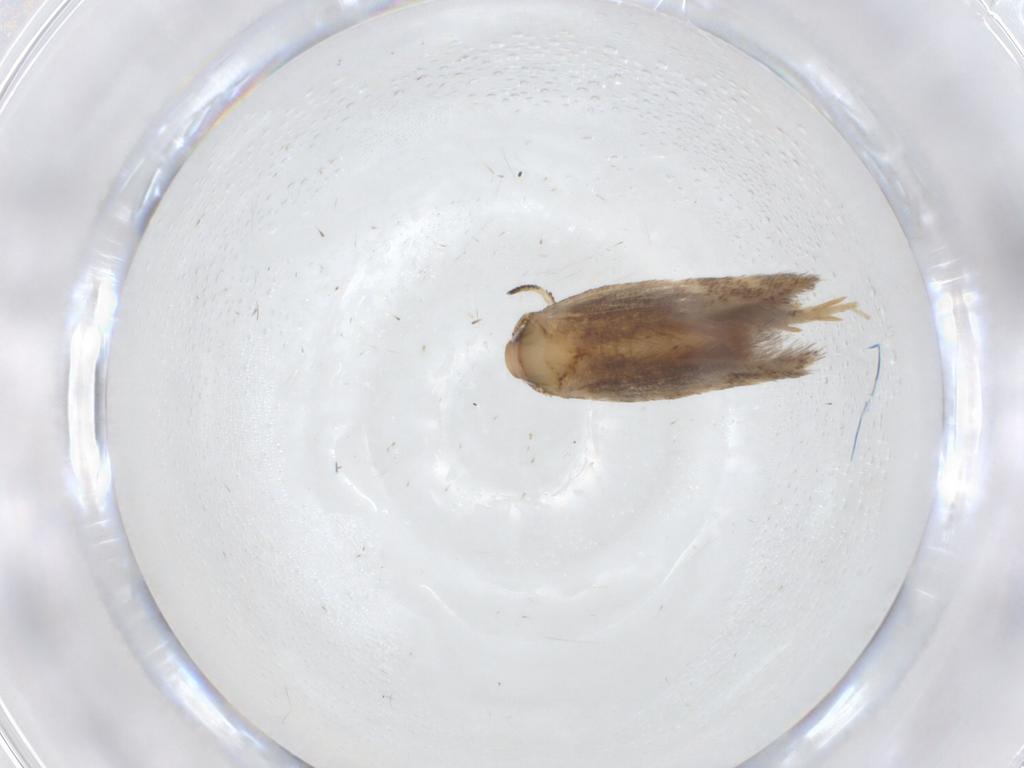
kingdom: Animalia
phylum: Arthropoda
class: Insecta
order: Lepidoptera
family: Cosmopterigidae
